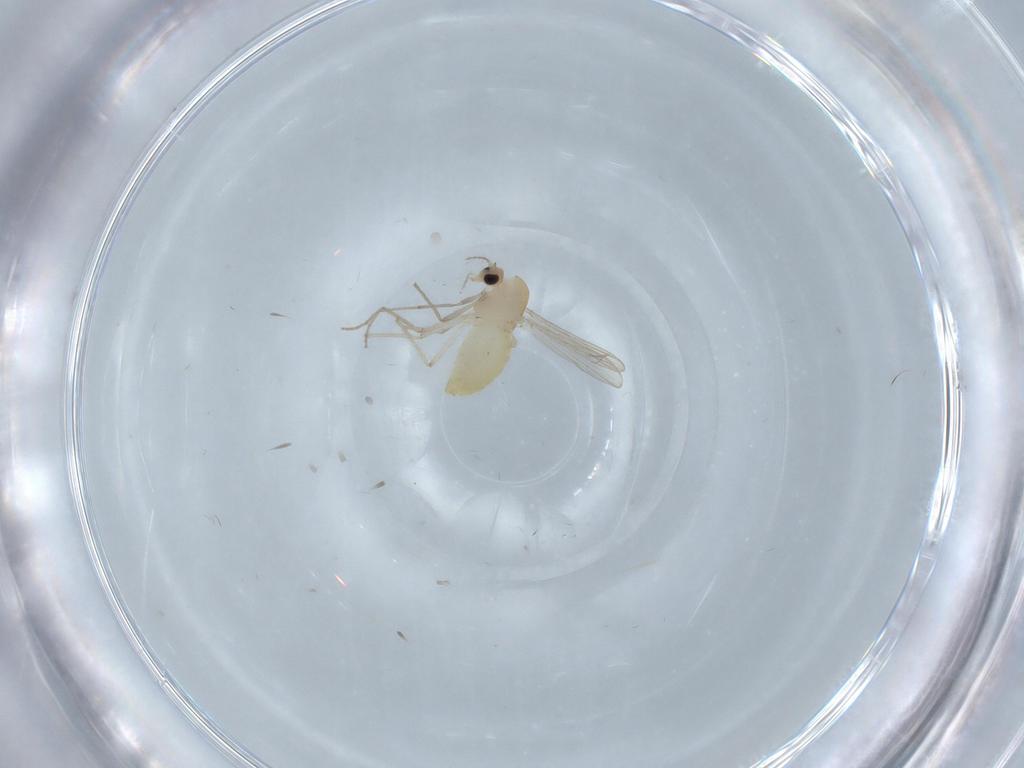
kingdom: Animalia
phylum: Arthropoda
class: Insecta
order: Diptera
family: Chironomidae
